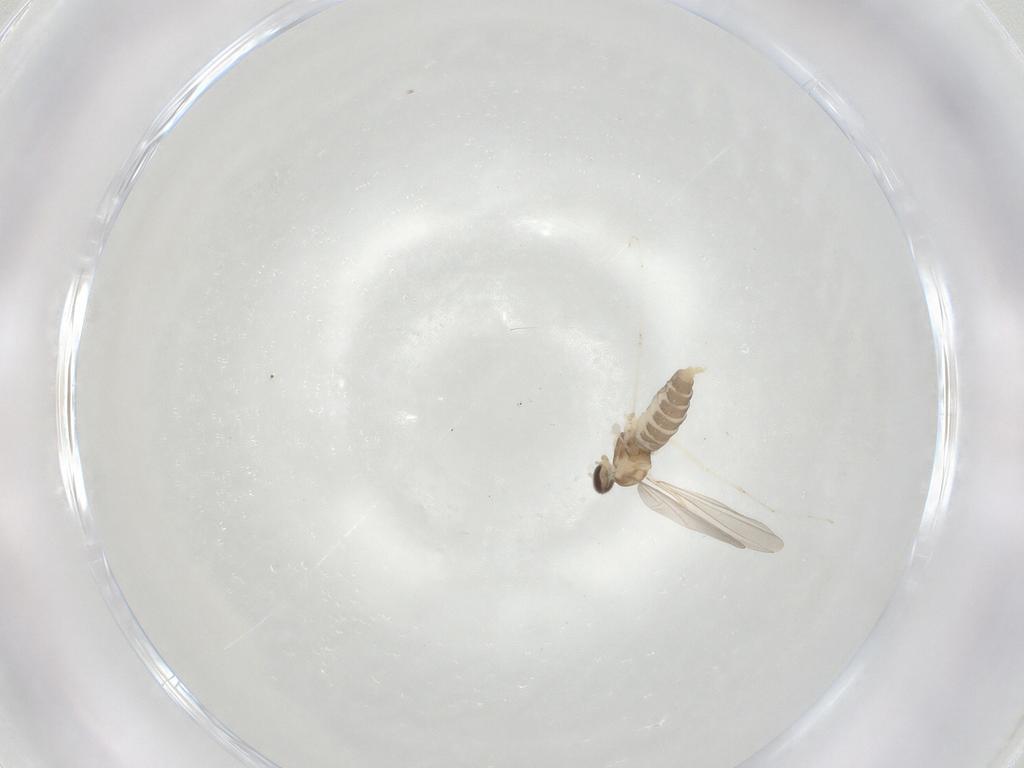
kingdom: Animalia
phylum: Arthropoda
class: Insecta
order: Diptera
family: Cecidomyiidae
